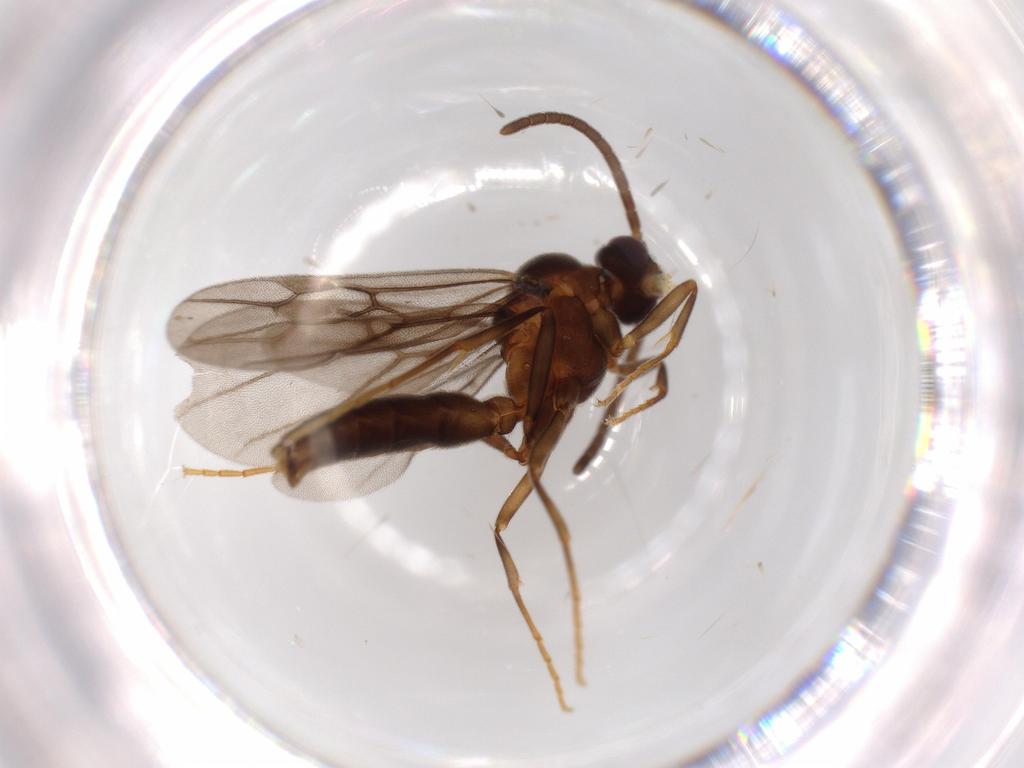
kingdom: Animalia
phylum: Arthropoda
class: Insecta
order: Hymenoptera
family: Formicidae
